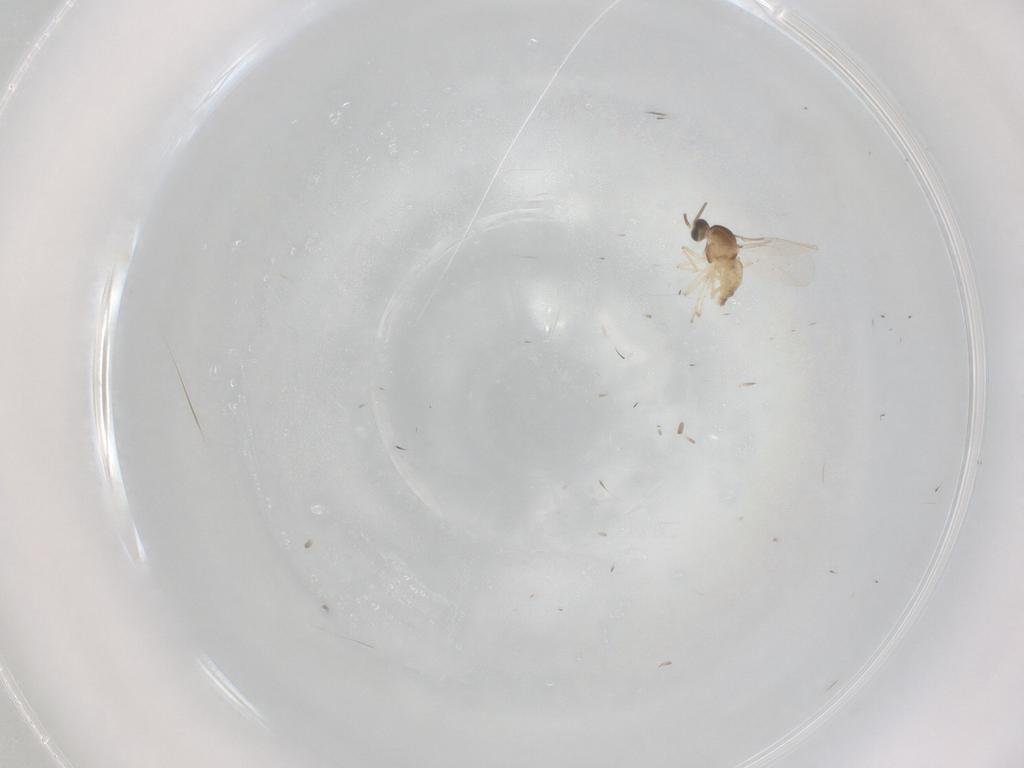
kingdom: Animalia
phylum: Arthropoda
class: Insecta
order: Diptera
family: Cecidomyiidae
